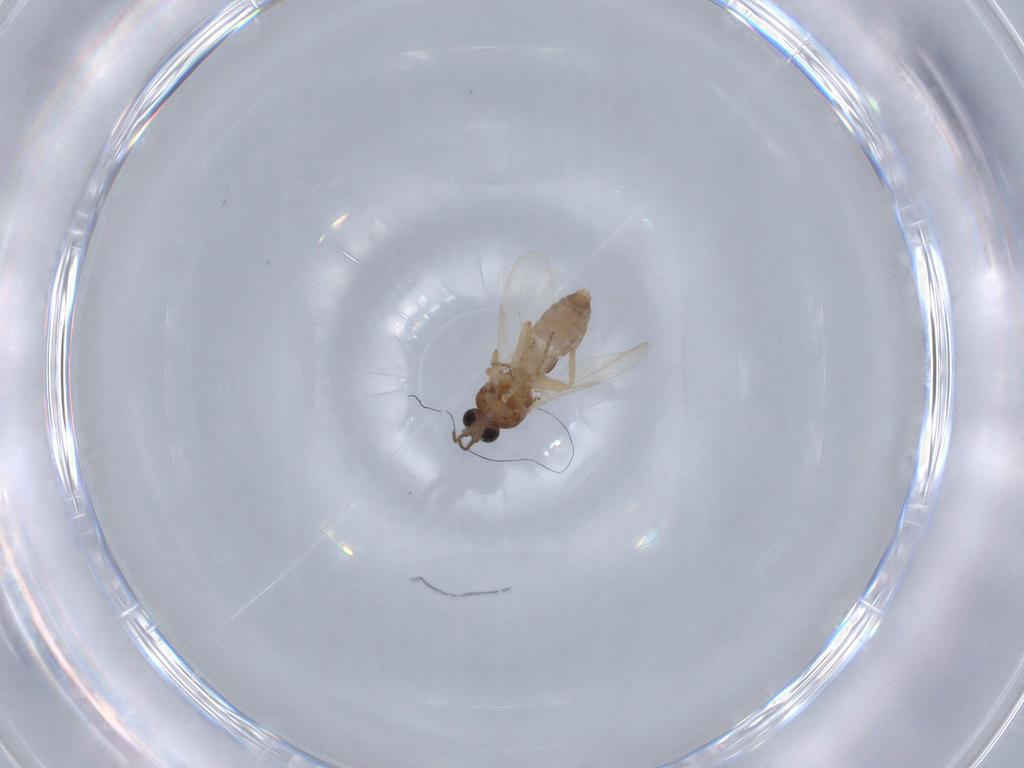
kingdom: Animalia
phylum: Arthropoda
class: Insecta
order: Diptera
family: Ceratopogonidae
